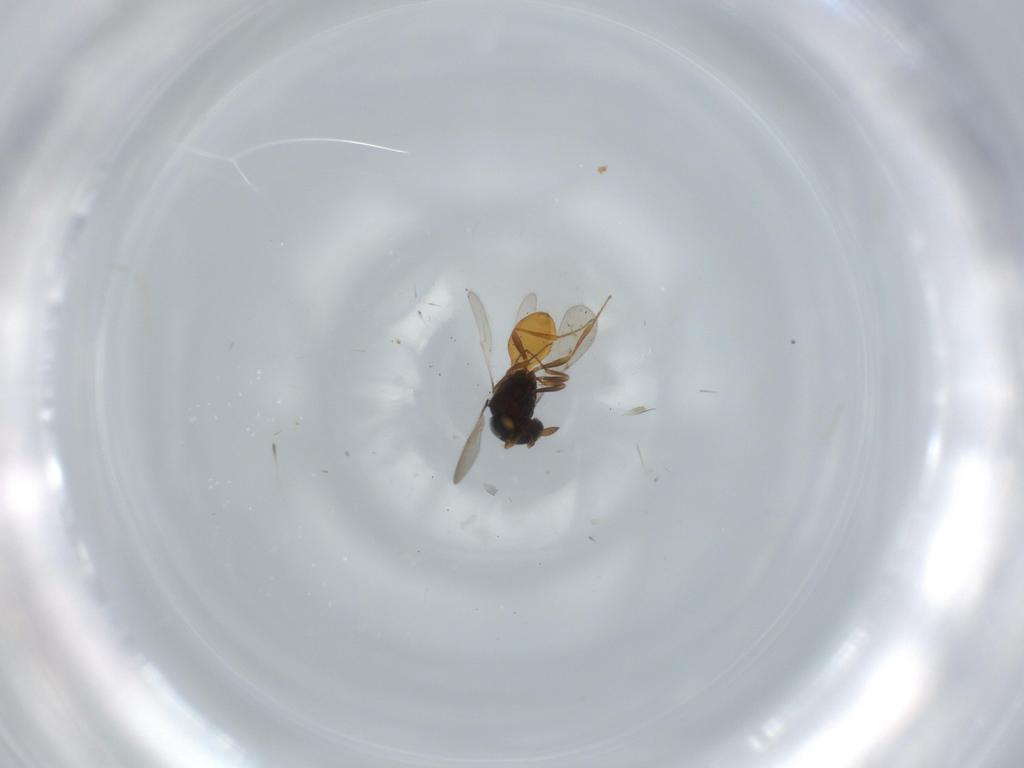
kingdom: Animalia
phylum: Arthropoda
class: Insecta
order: Hymenoptera
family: Scelionidae
